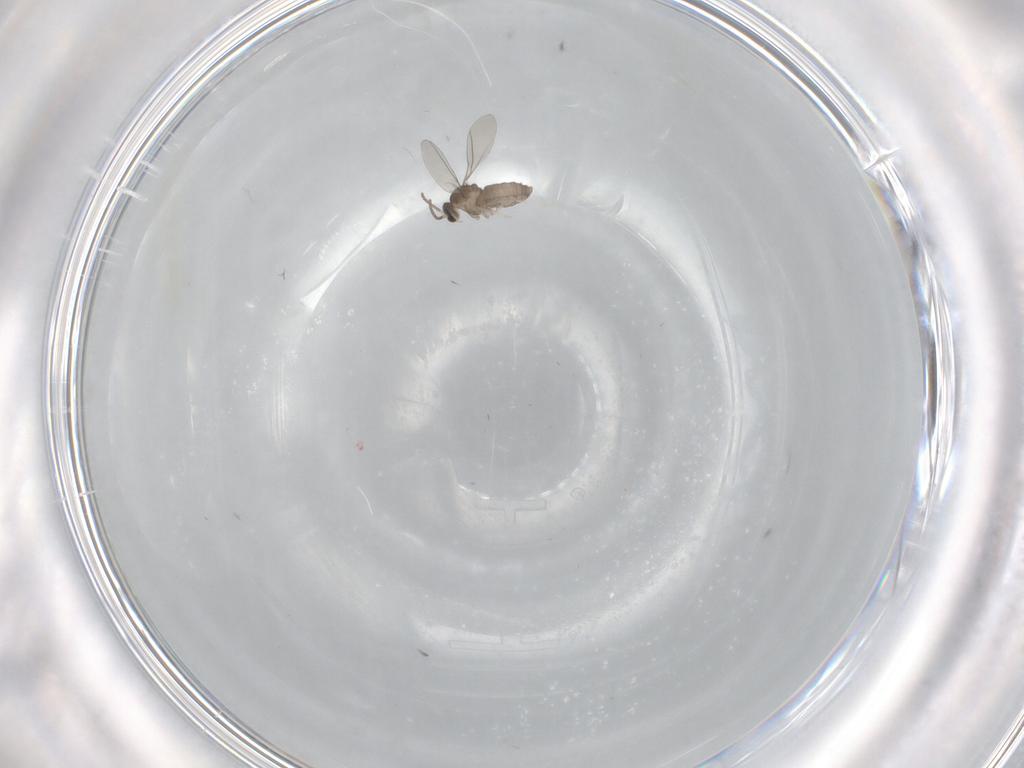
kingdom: Animalia
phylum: Arthropoda
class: Insecta
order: Diptera
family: Cecidomyiidae
